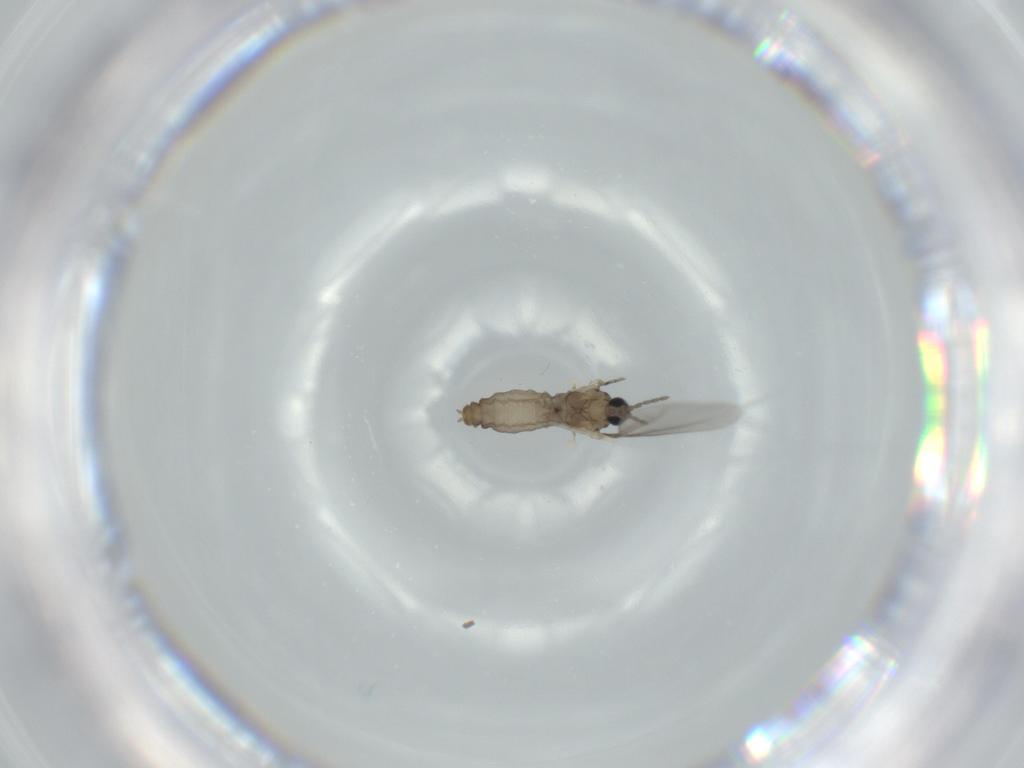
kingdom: Animalia
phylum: Arthropoda
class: Insecta
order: Diptera
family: Cecidomyiidae
